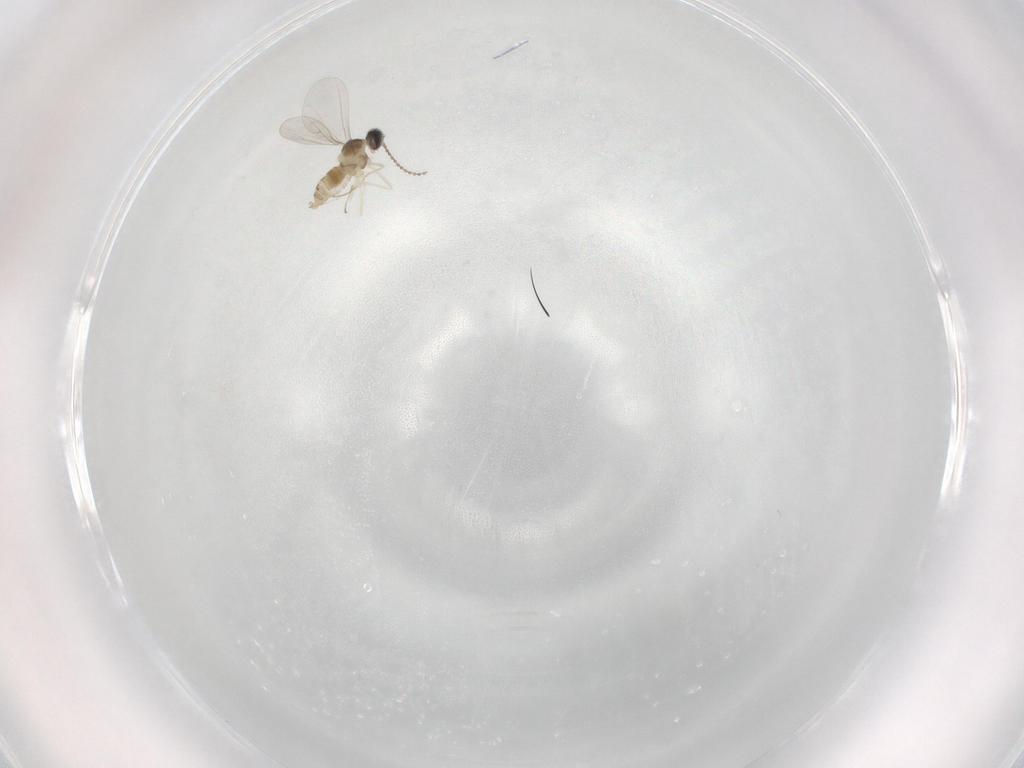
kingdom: Animalia
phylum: Arthropoda
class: Insecta
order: Diptera
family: Cecidomyiidae
